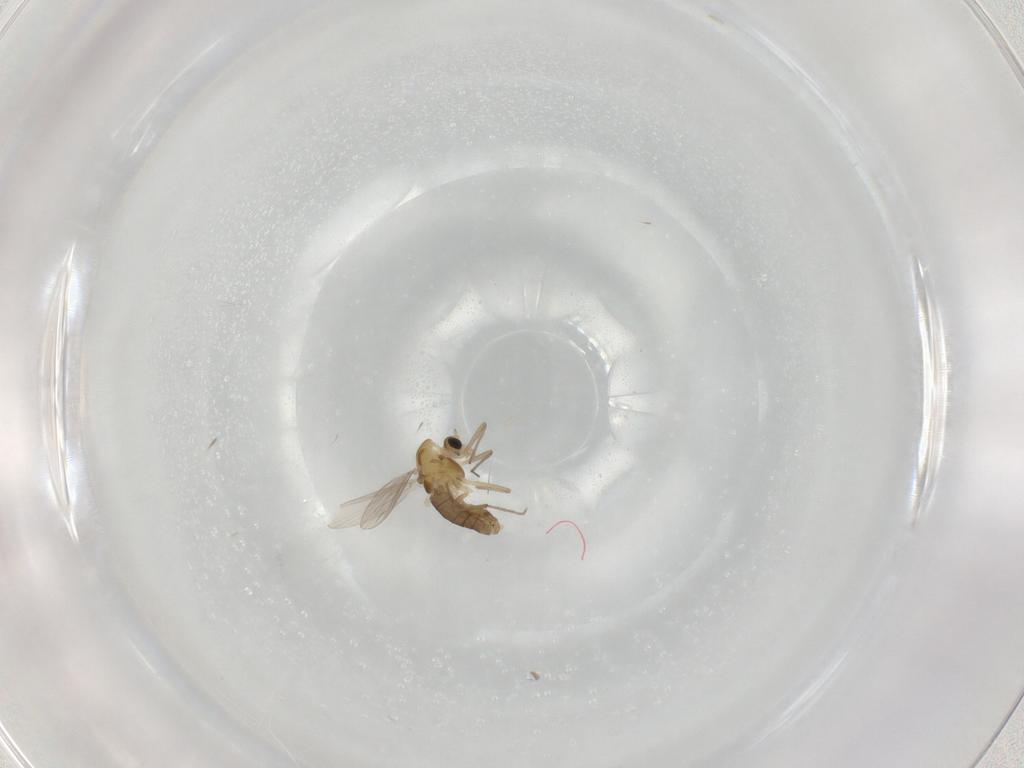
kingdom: Animalia
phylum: Arthropoda
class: Insecta
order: Diptera
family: Chironomidae
